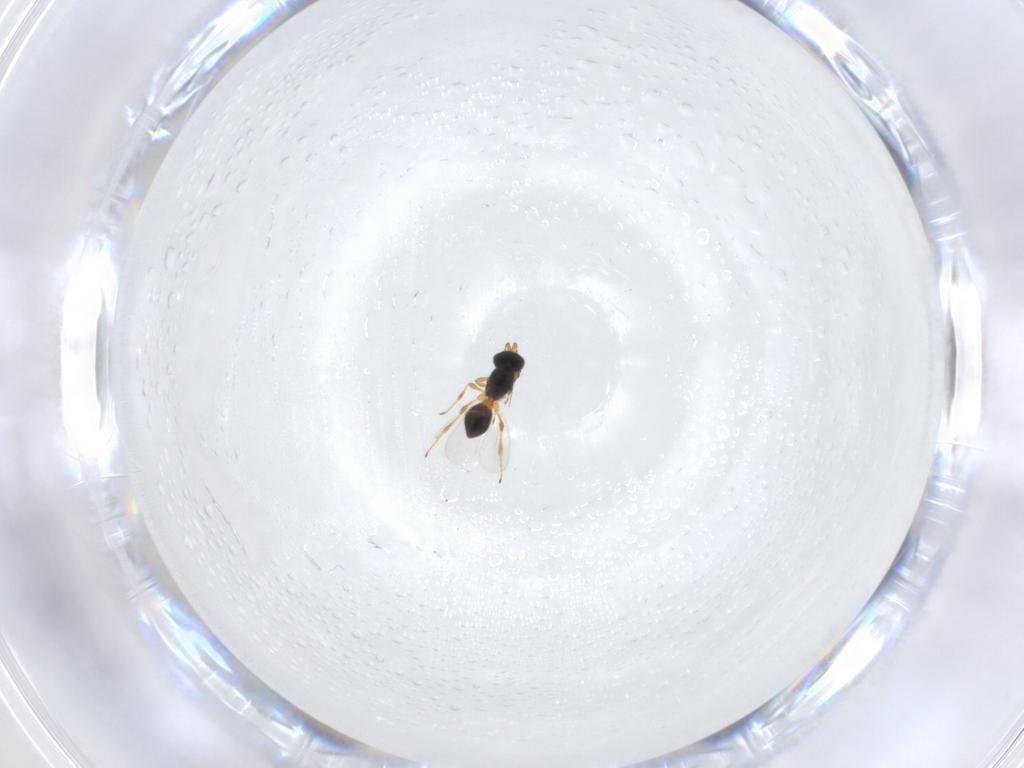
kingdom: Animalia
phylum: Arthropoda
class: Insecta
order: Hymenoptera
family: Platygastridae
